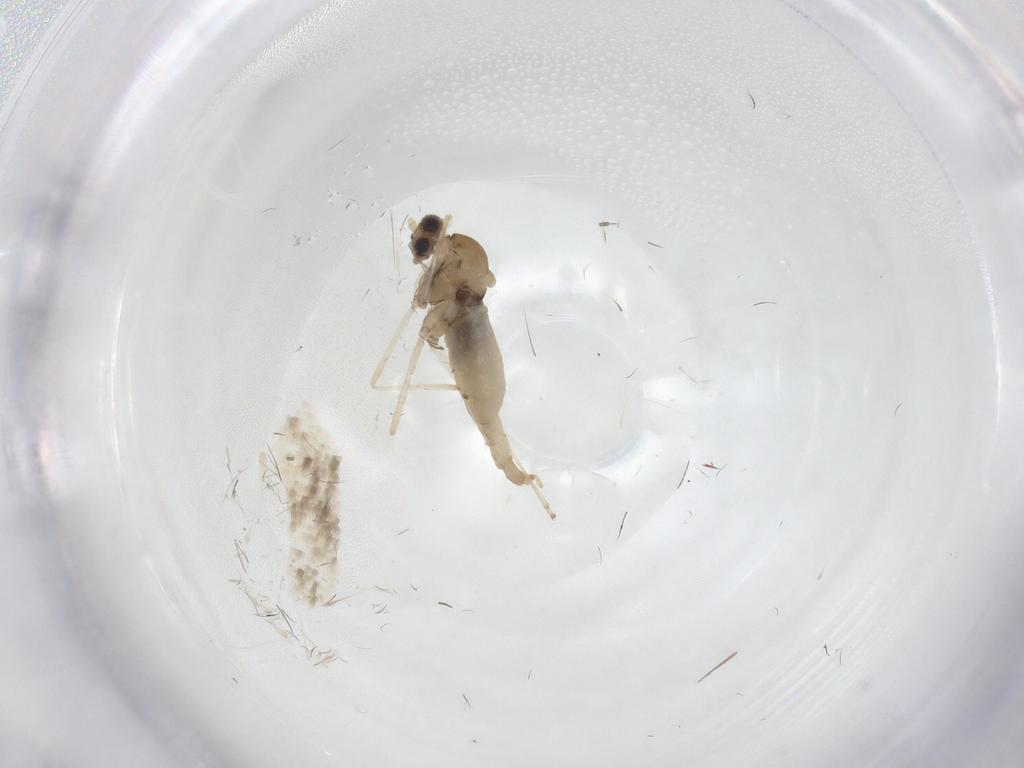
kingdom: Animalia
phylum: Arthropoda
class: Insecta
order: Diptera
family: Cecidomyiidae
